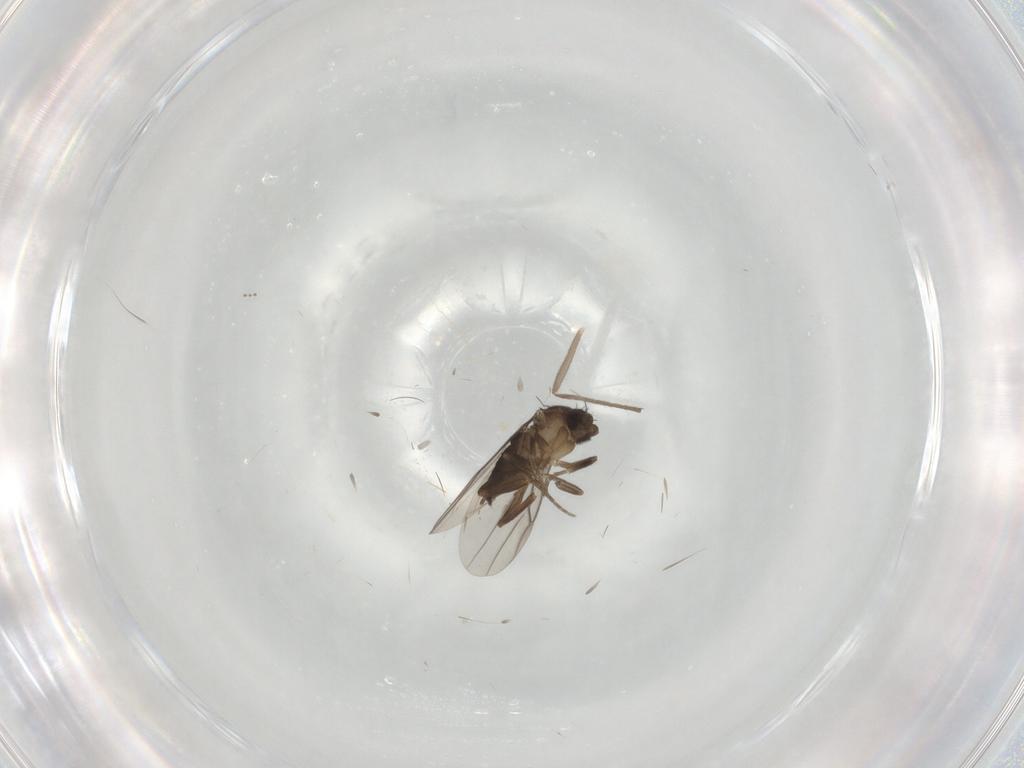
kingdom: Animalia
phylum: Arthropoda
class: Insecta
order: Diptera
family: Chironomidae
